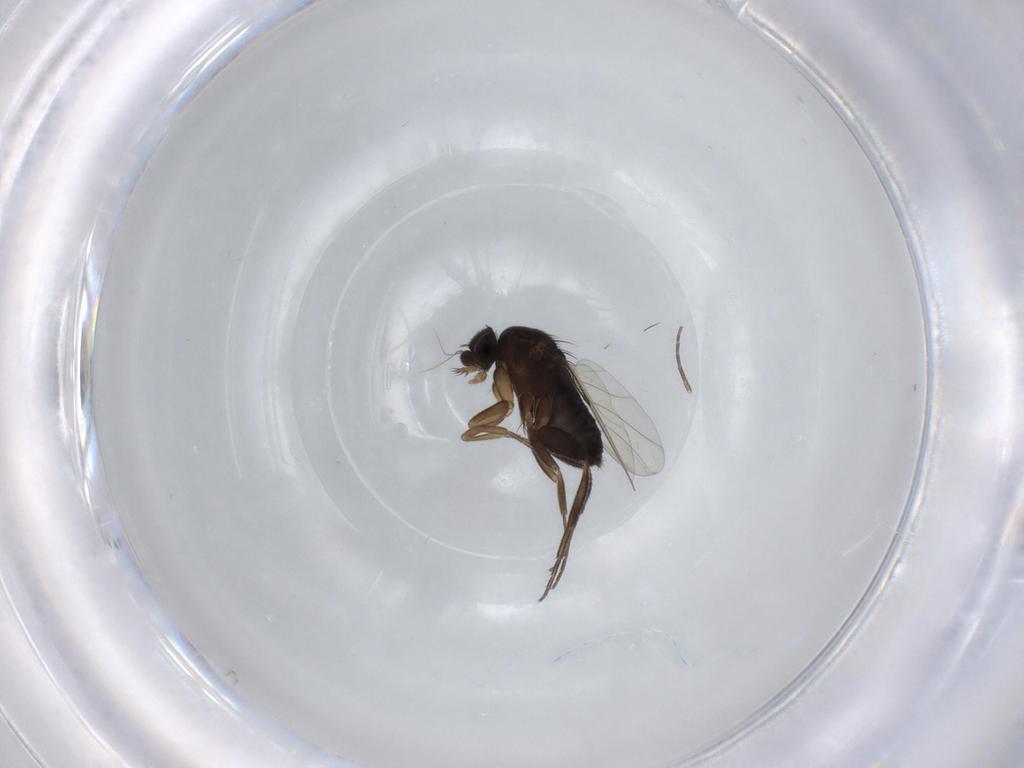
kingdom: Animalia
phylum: Arthropoda
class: Insecta
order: Diptera
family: Phoridae
